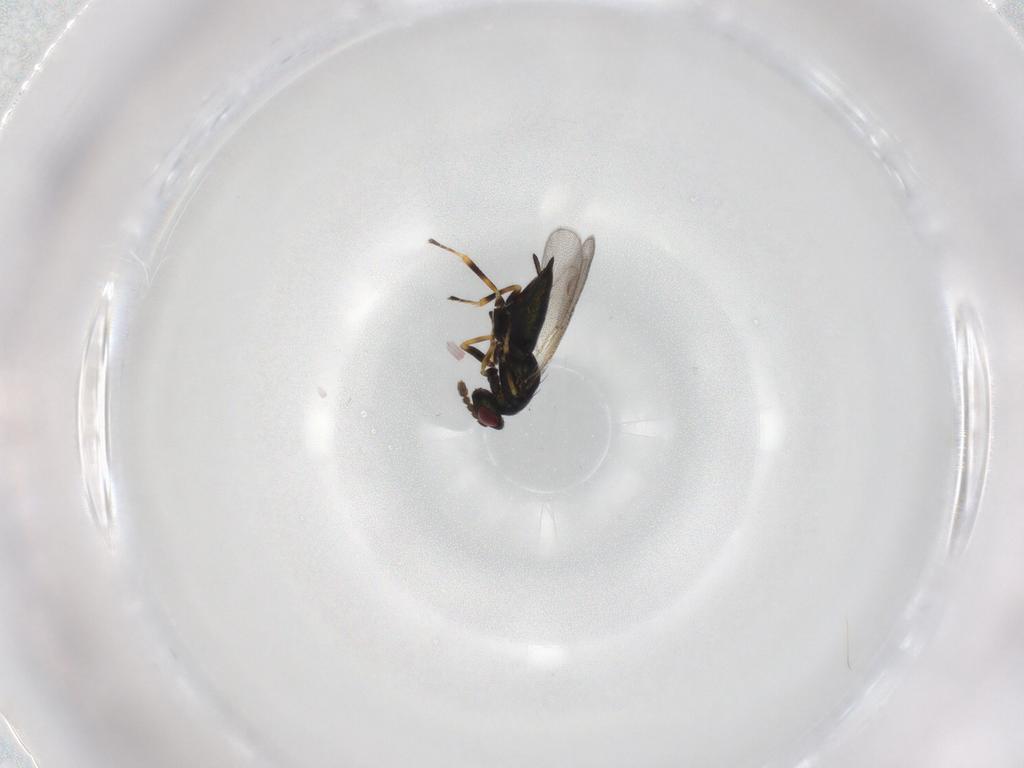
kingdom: Animalia
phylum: Arthropoda
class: Insecta
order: Hymenoptera
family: Eulophidae
